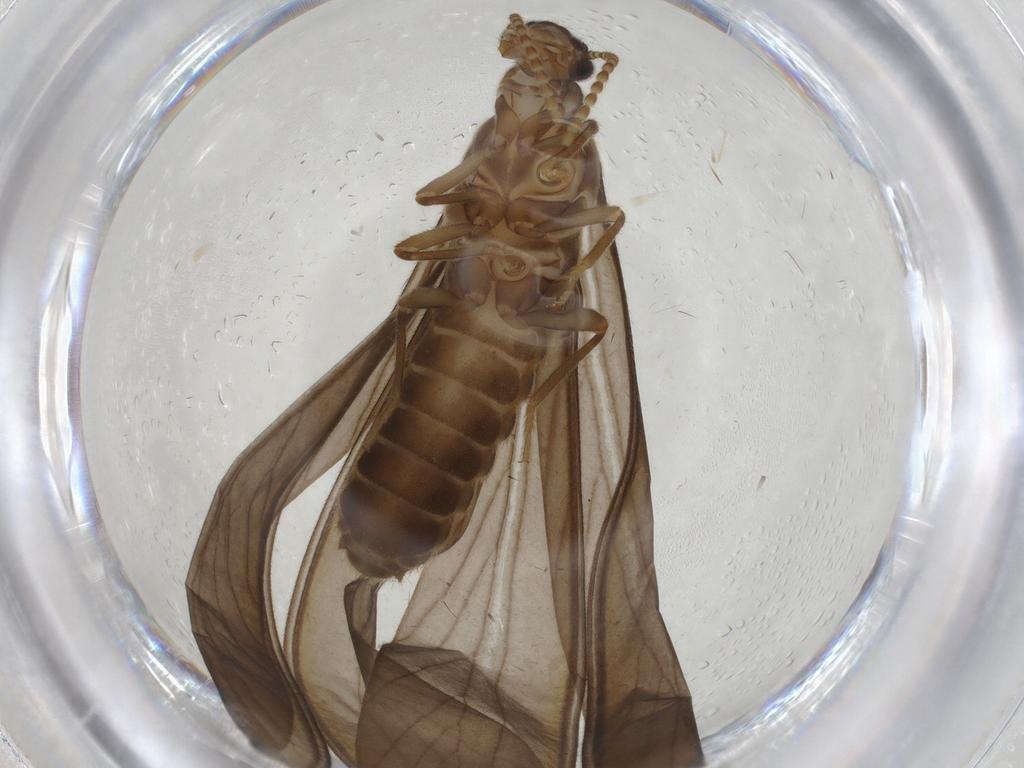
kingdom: Animalia
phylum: Arthropoda
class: Insecta
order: Blattodea
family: Termitidae
